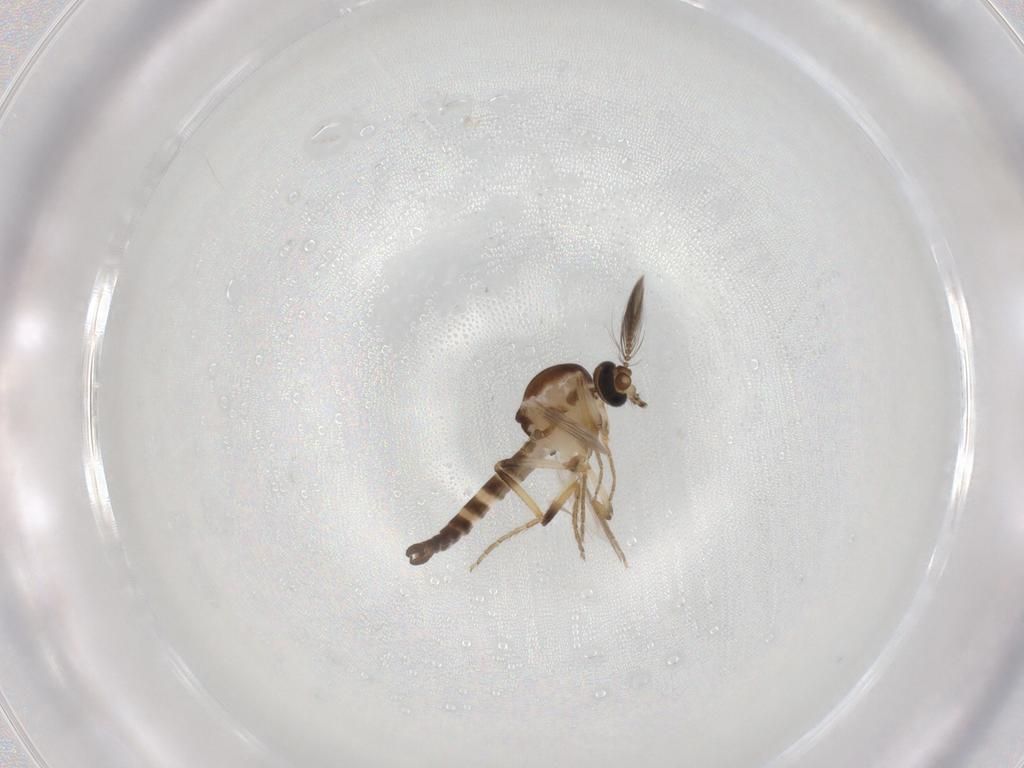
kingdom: Animalia
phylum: Arthropoda
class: Insecta
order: Diptera
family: Ceratopogonidae
